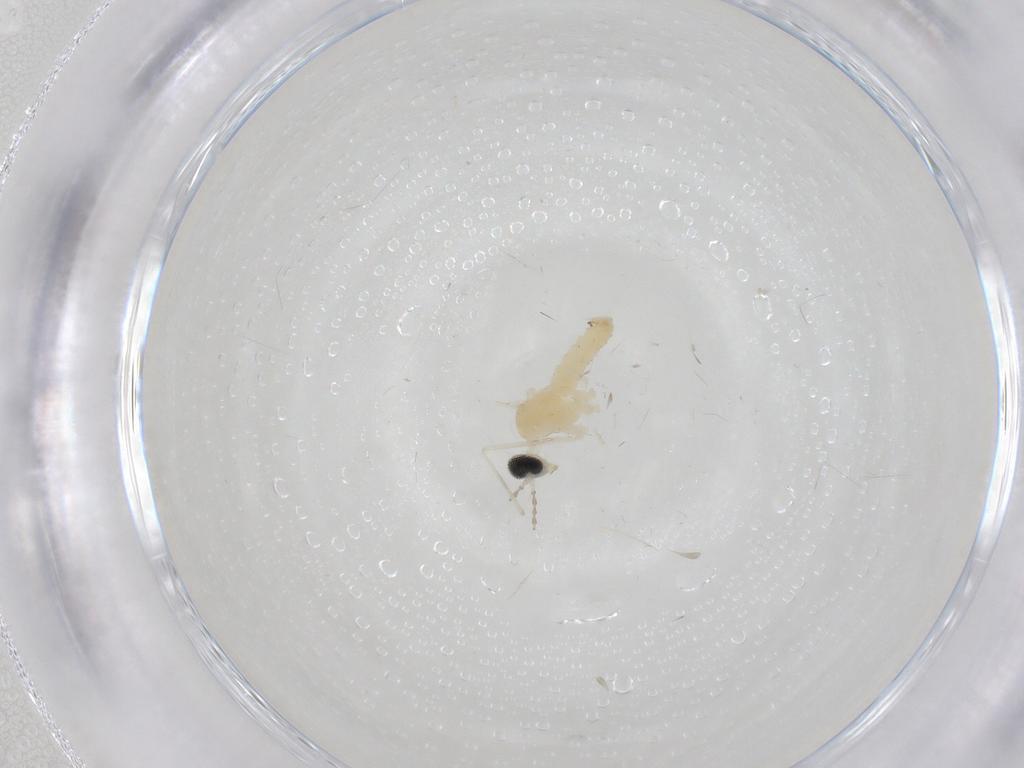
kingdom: Animalia
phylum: Arthropoda
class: Insecta
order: Diptera
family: Cecidomyiidae
